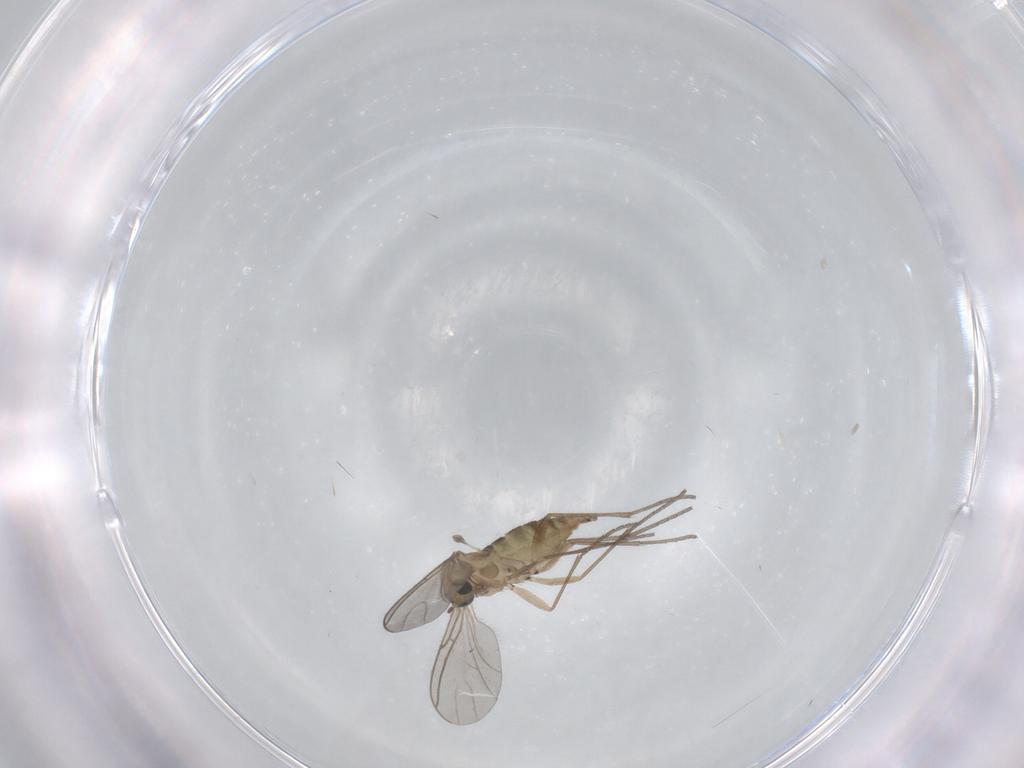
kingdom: Animalia
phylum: Arthropoda
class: Insecta
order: Diptera
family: Sciaridae
